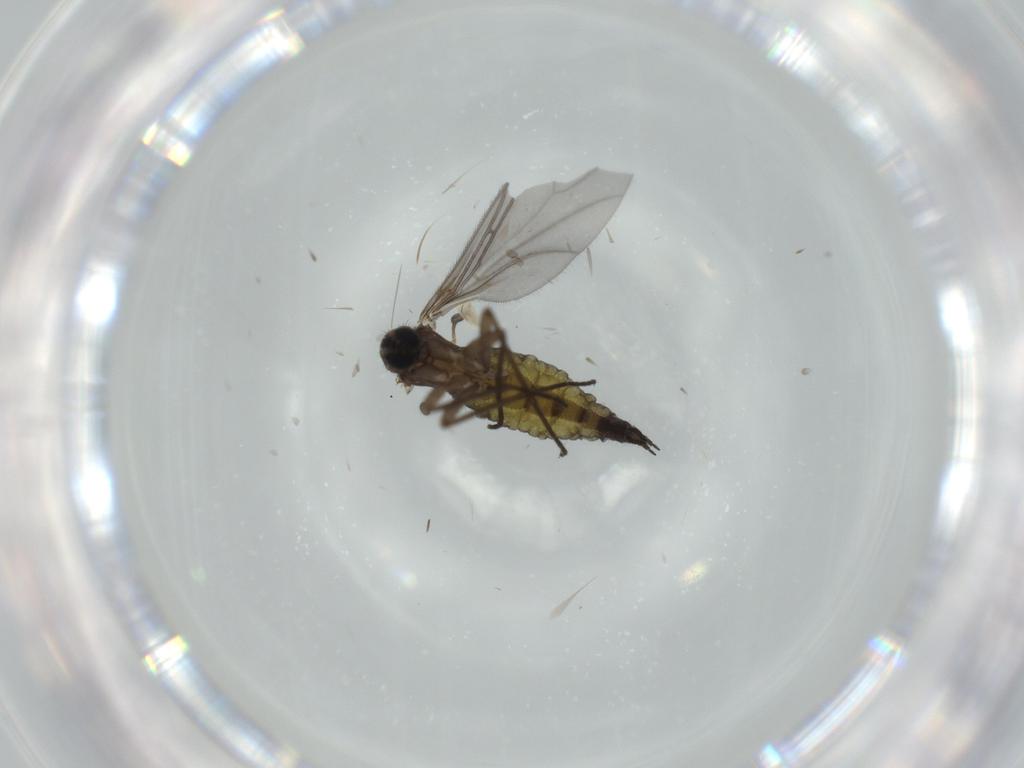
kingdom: Animalia
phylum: Arthropoda
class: Insecta
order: Diptera
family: Sciaridae
